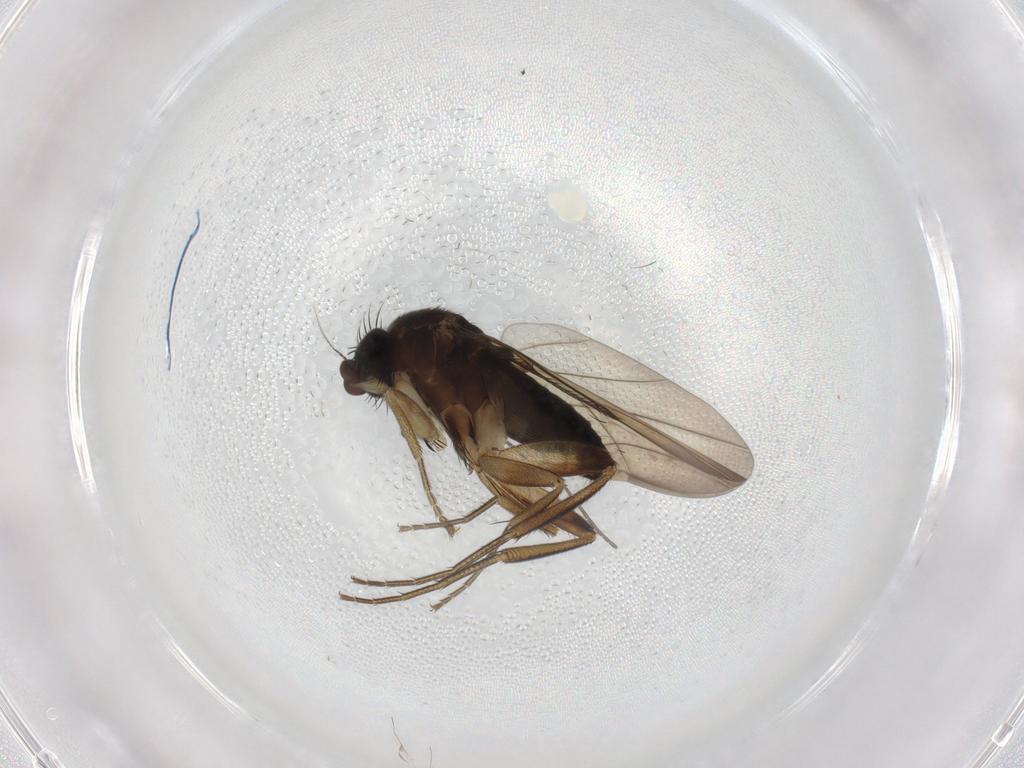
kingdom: Animalia
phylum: Arthropoda
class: Insecta
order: Diptera
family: Phoridae
